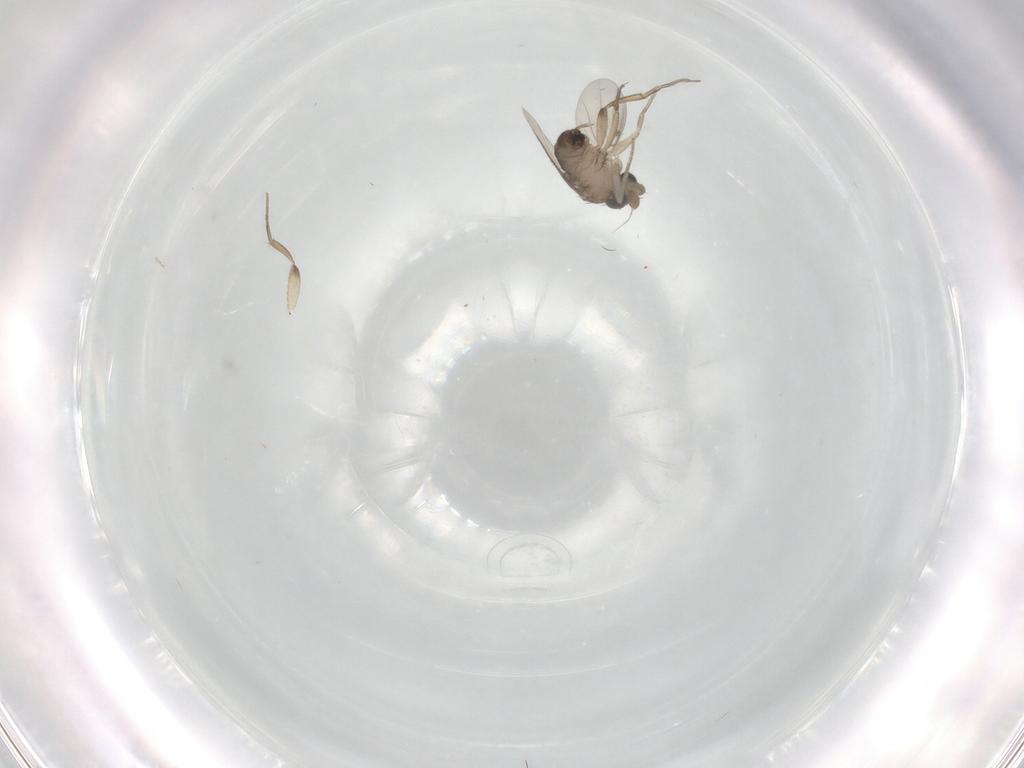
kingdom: Animalia
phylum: Arthropoda
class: Insecta
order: Diptera
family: Phoridae
